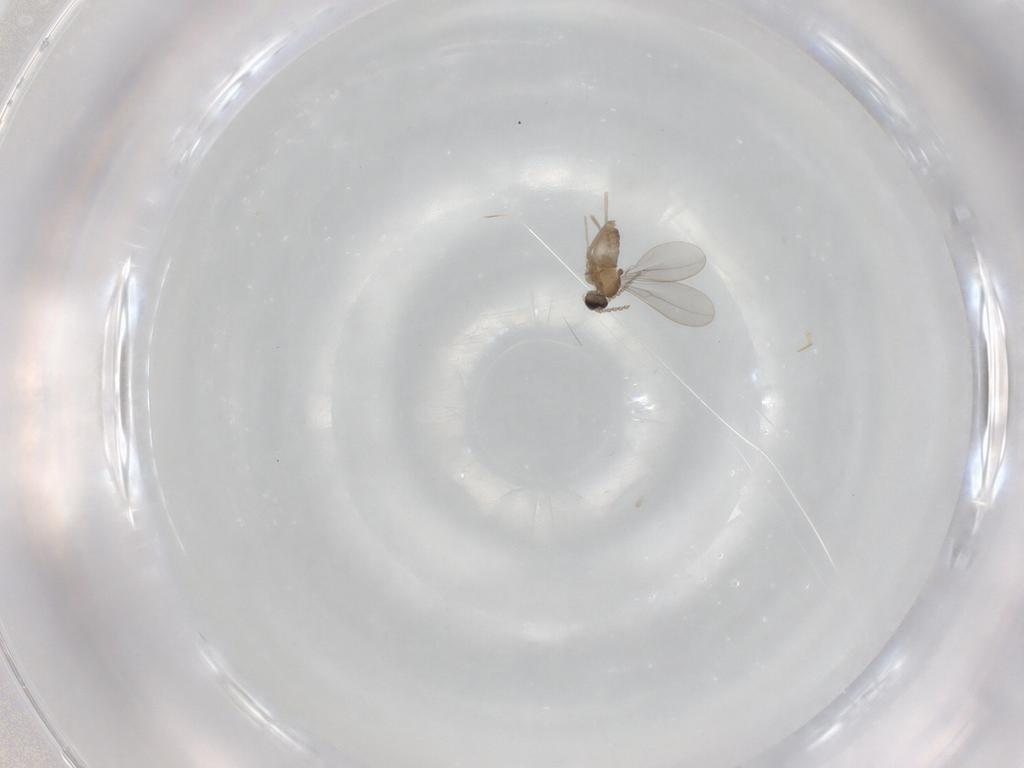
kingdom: Animalia
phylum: Arthropoda
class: Insecta
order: Diptera
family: Cecidomyiidae
